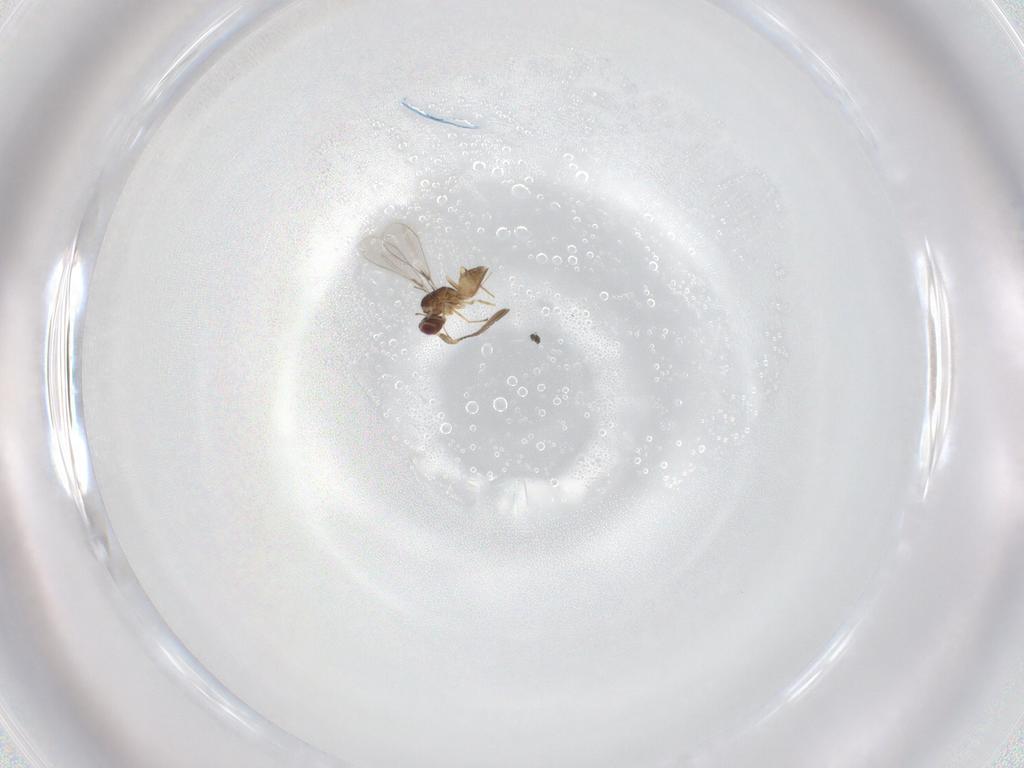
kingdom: Animalia
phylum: Arthropoda
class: Insecta
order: Hymenoptera
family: Mymaridae
